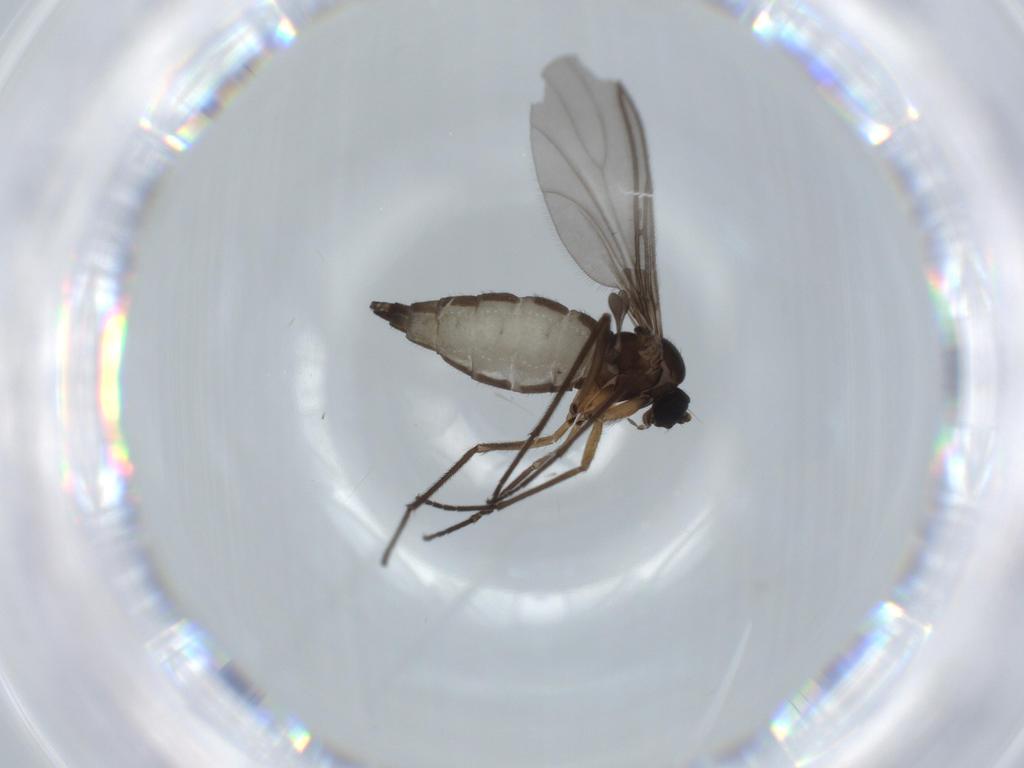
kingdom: Animalia
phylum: Arthropoda
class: Insecta
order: Diptera
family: Sciaridae
